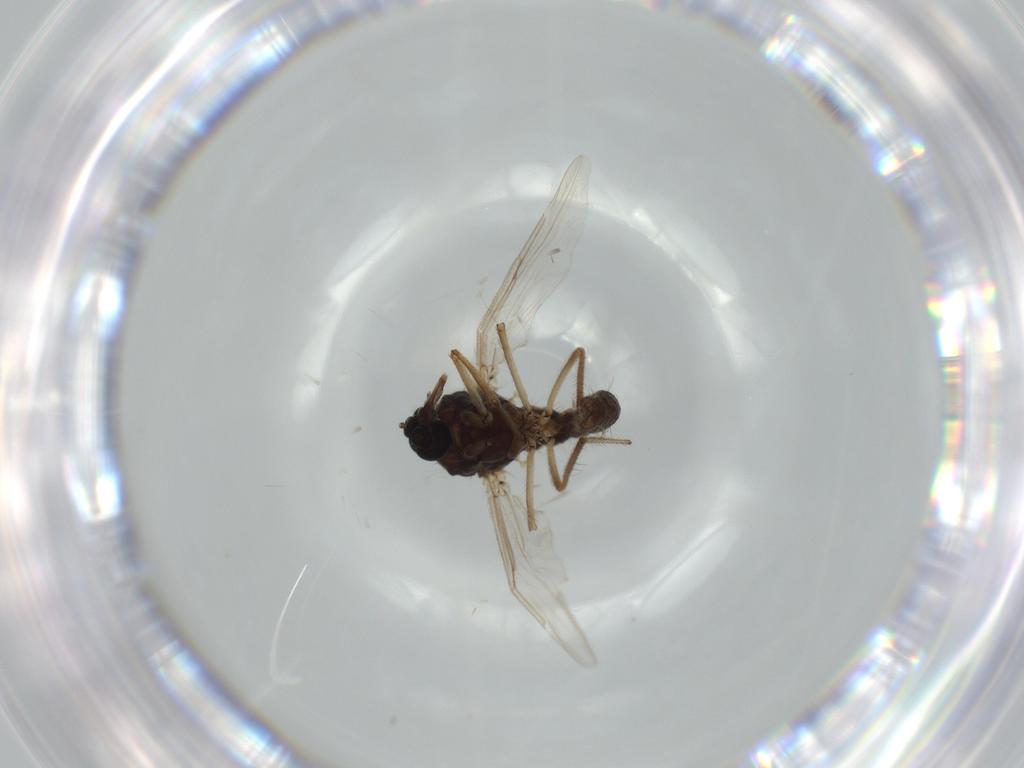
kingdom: Animalia
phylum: Arthropoda
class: Insecta
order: Diptera
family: Ceratopogonidae
